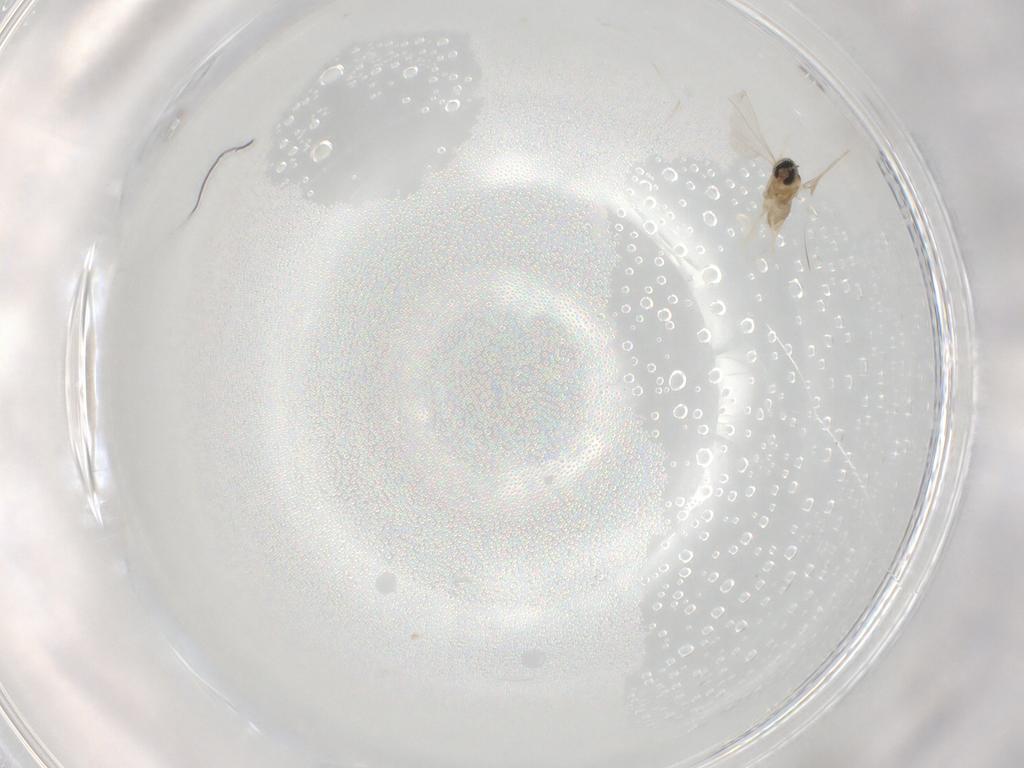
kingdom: Animalia
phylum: Arthropoda
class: Insecta
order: Diptera
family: Cecidomyiidae
